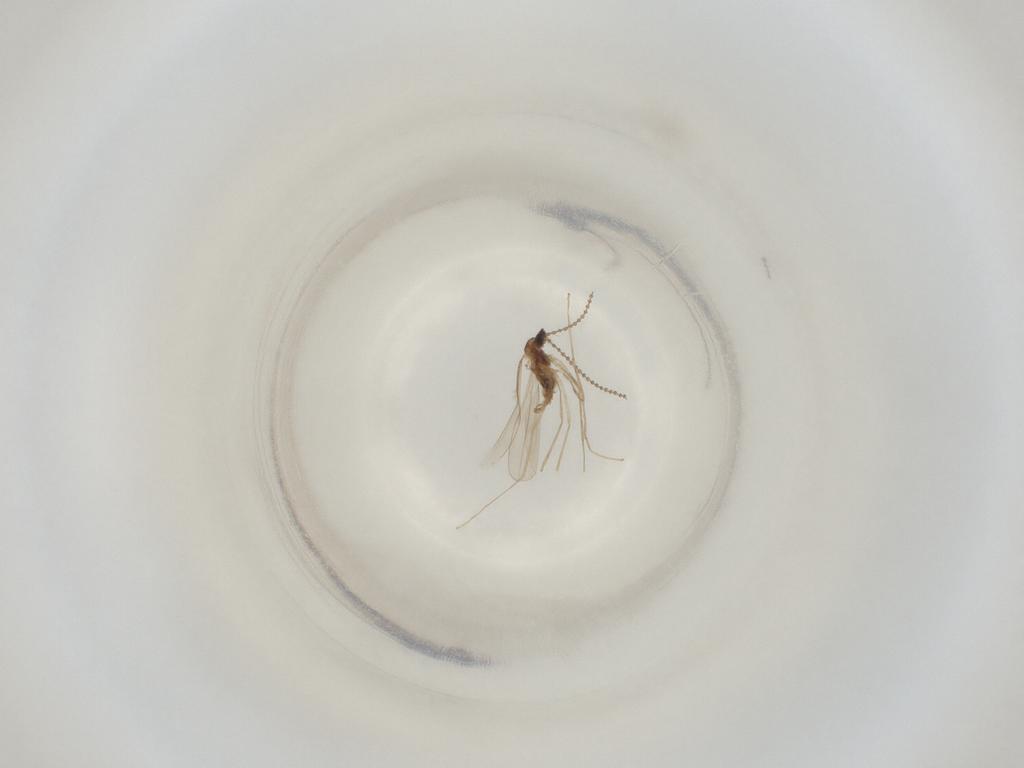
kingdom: Animalia
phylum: Arthropoda
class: Insecta
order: Diptera
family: Cecidomyiidae
